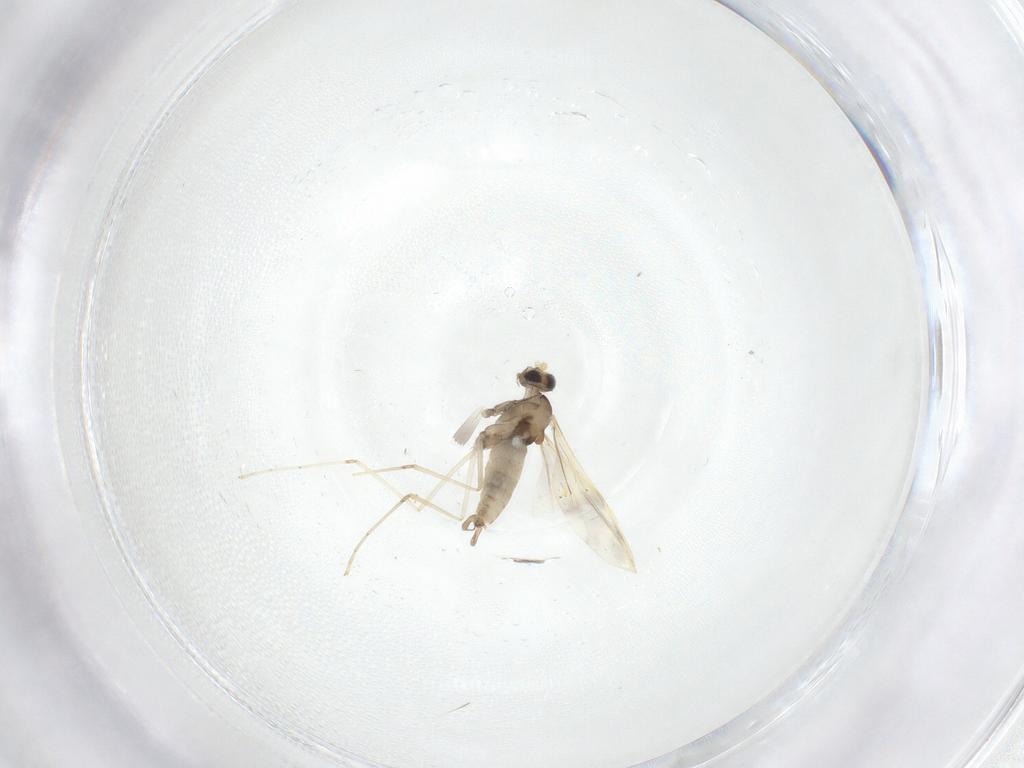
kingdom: Animalia
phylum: Arthropoda
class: Insecta
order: Diptera
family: Cecidomyiidae
